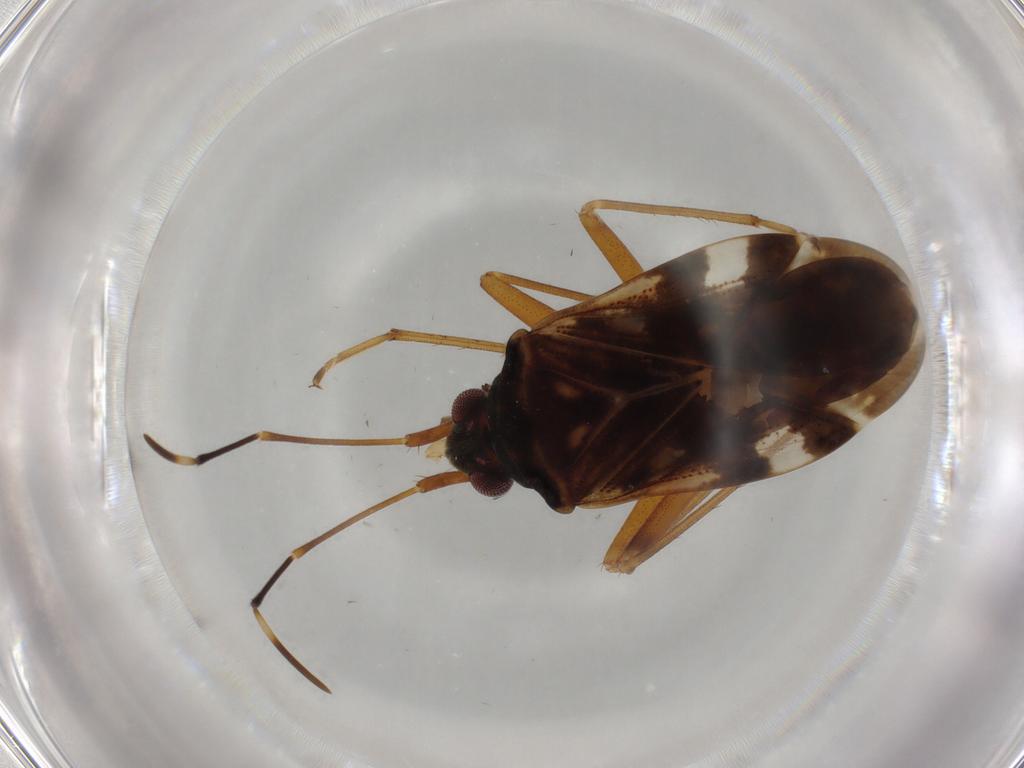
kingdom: Animalia
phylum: Arthropoda
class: Insecta
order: Hemiptera
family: Rhyparochromidae
